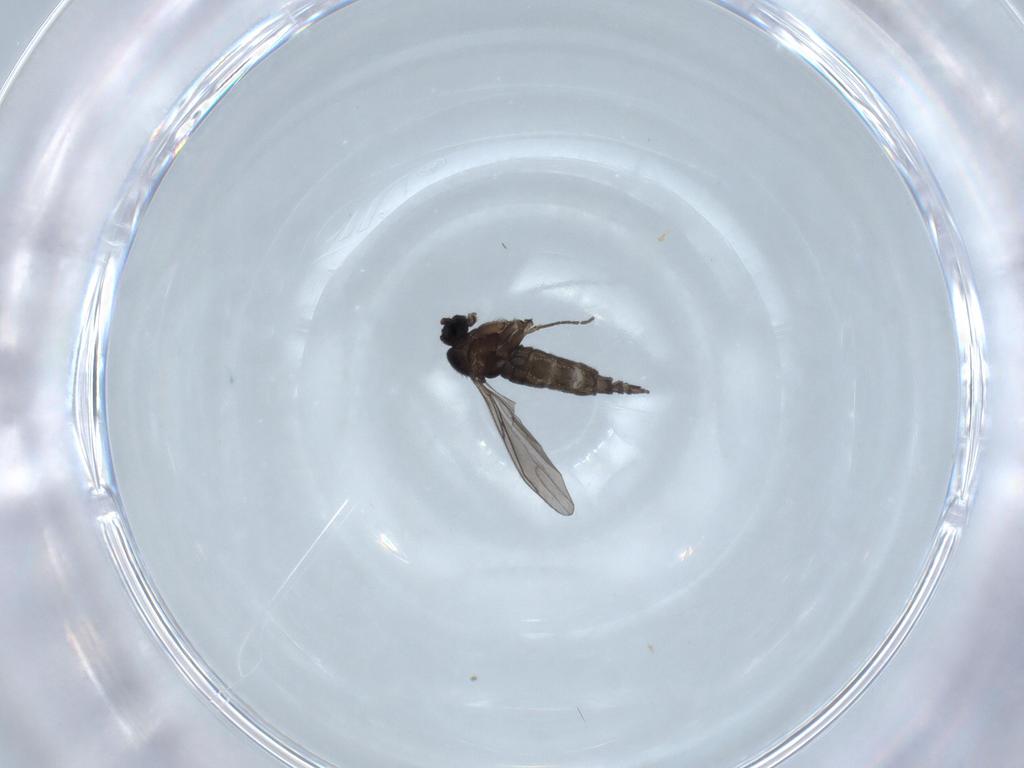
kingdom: Animalia
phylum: Arthropoda
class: Insecta
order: Diptera
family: Sciaridae
